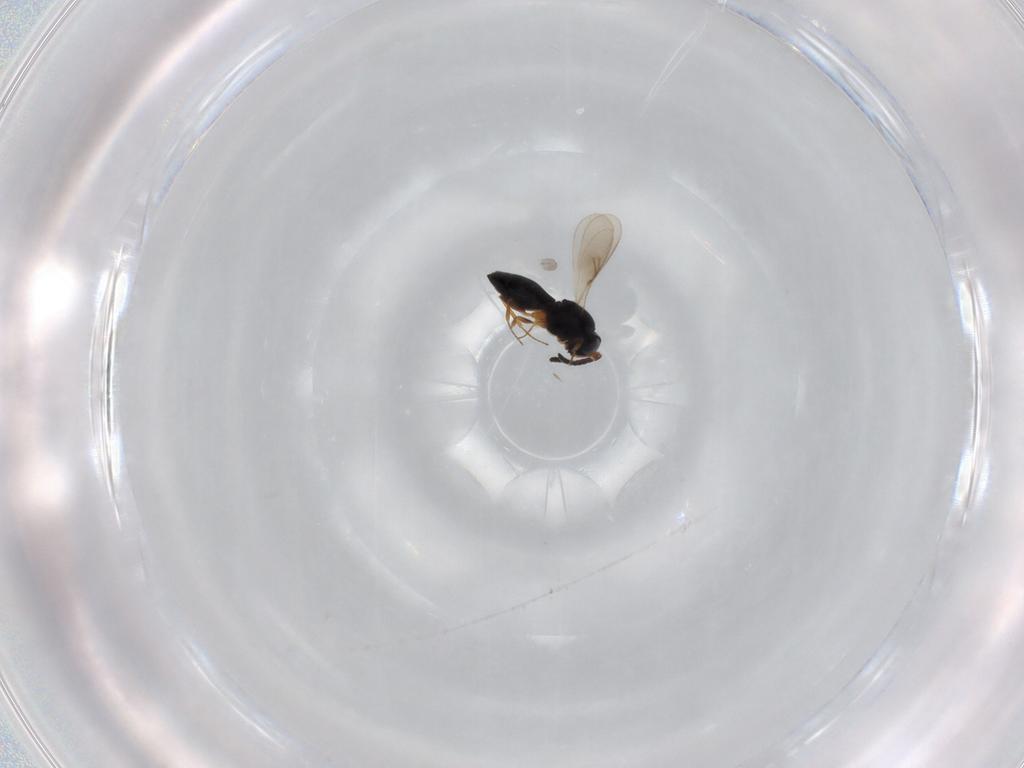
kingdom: Animalia
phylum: Arthropoda
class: Insecta
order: Hymenoptera
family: Scelionidae
